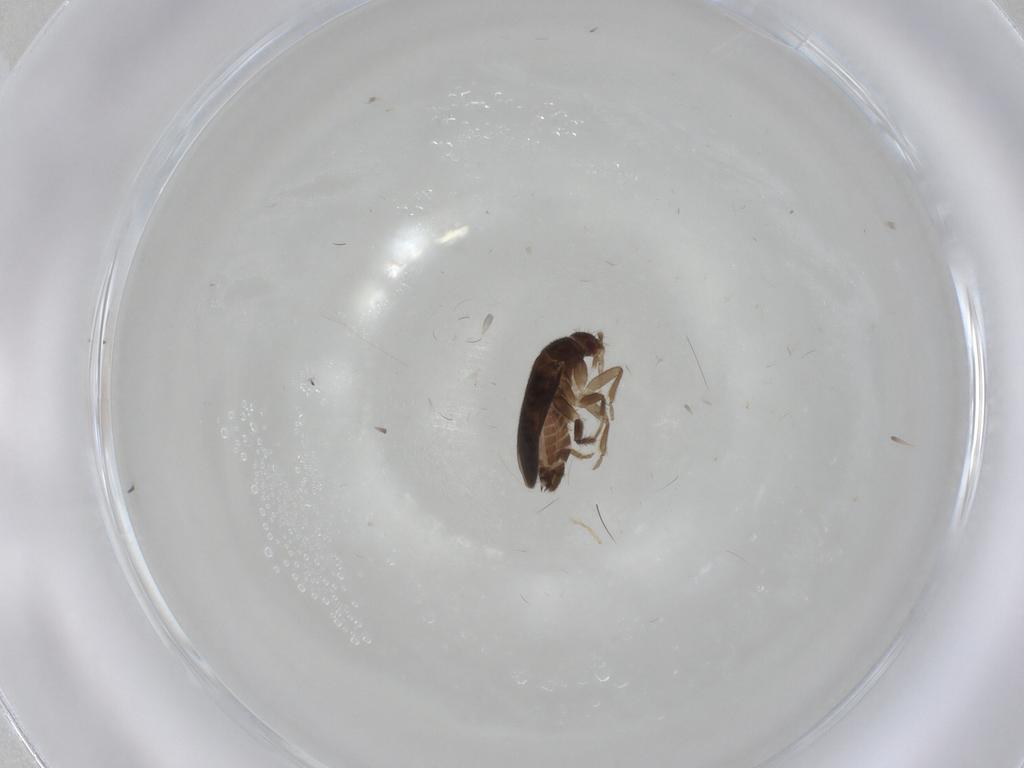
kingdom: Animalia
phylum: Arthropoda
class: Insecta
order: Hemiptera
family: Ceratocombidae
